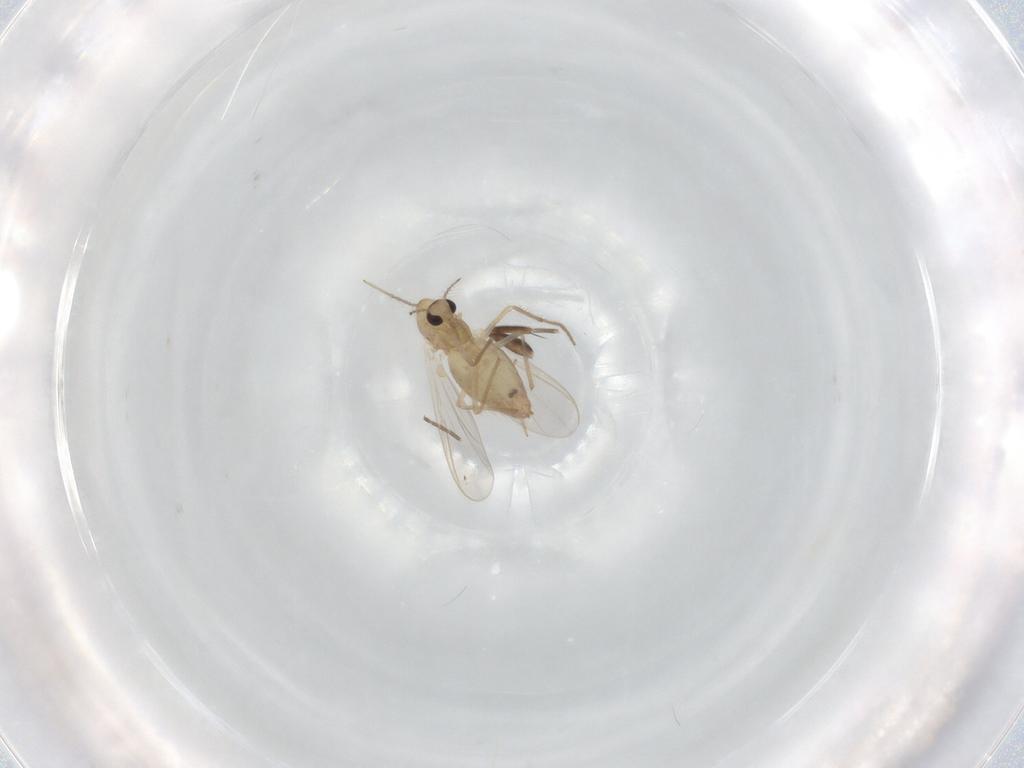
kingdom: Animalia
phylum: Arthropoda
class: Insecta
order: Diptera
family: Chironomidae
